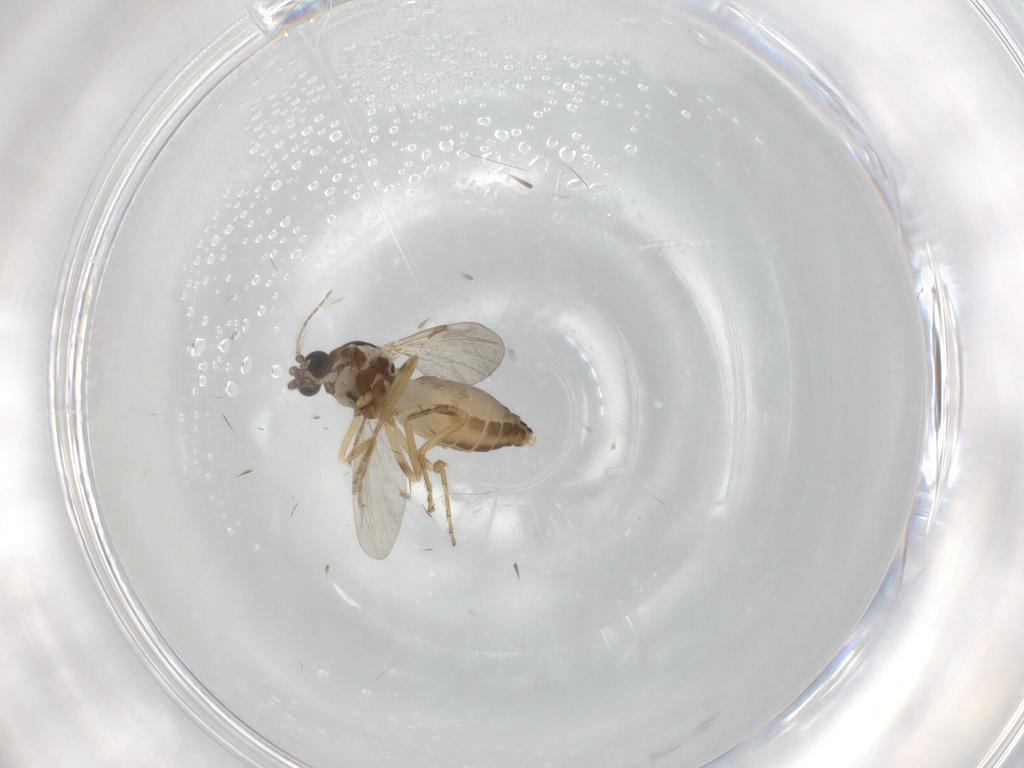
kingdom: Animalia
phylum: Arthropoda
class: Insecta
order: Diptera
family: Ceratopogonidae
